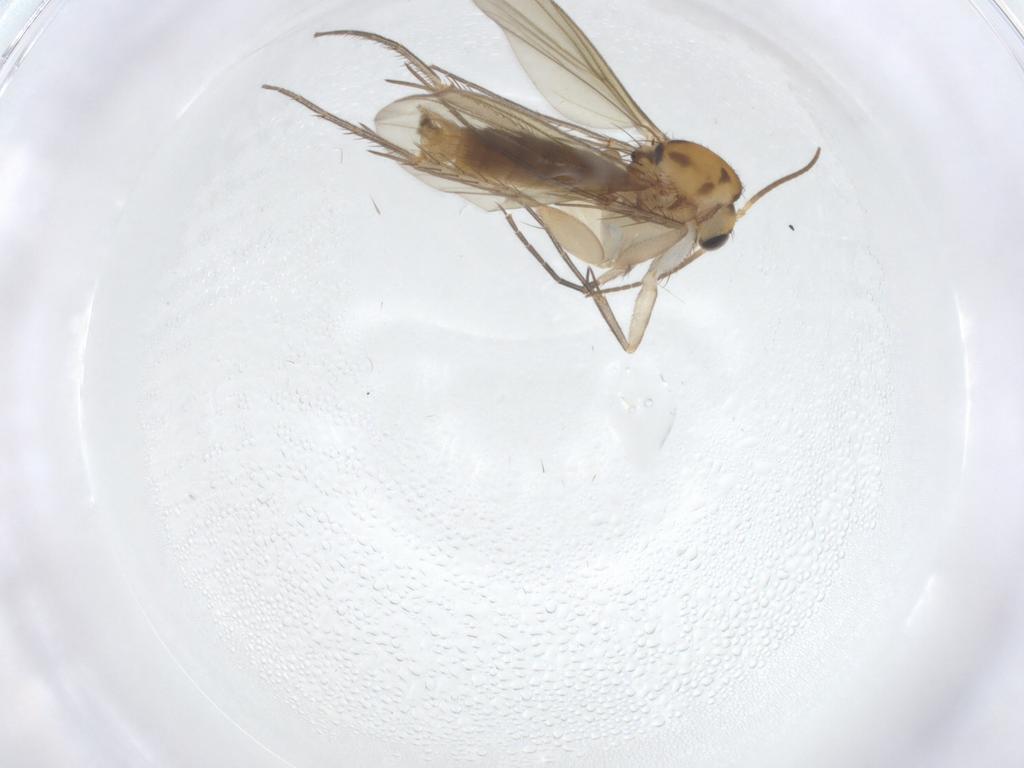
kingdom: Animalia
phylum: Arthropoda
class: Insecta
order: Diptera
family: Mycetophilidae
